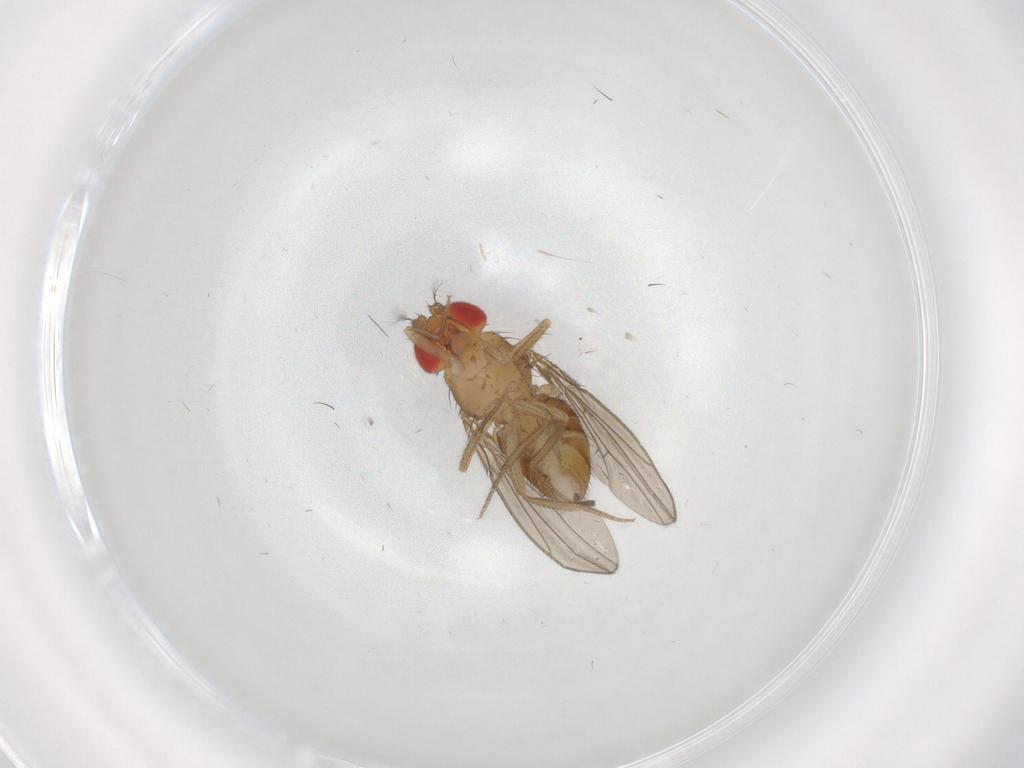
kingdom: Animalia
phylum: Arthropoda
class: Insecta
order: Diptera
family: Drosophilidae
